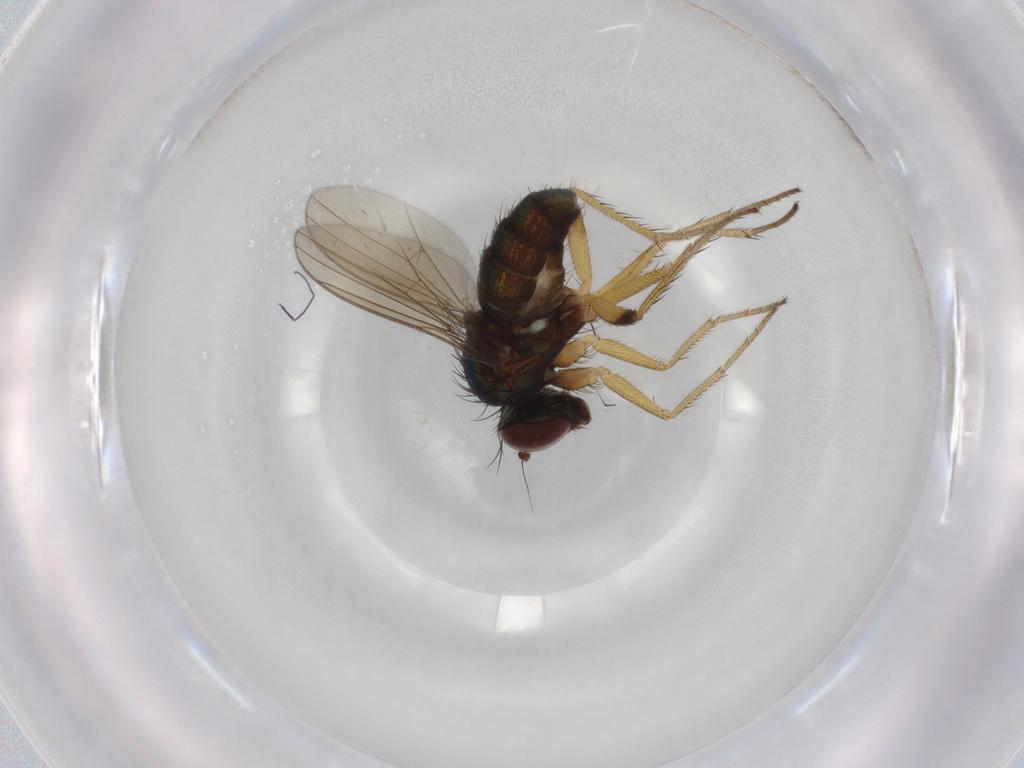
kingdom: Animalia
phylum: Arthropoda
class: Insecta
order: Diptera
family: Dolichopodidae
